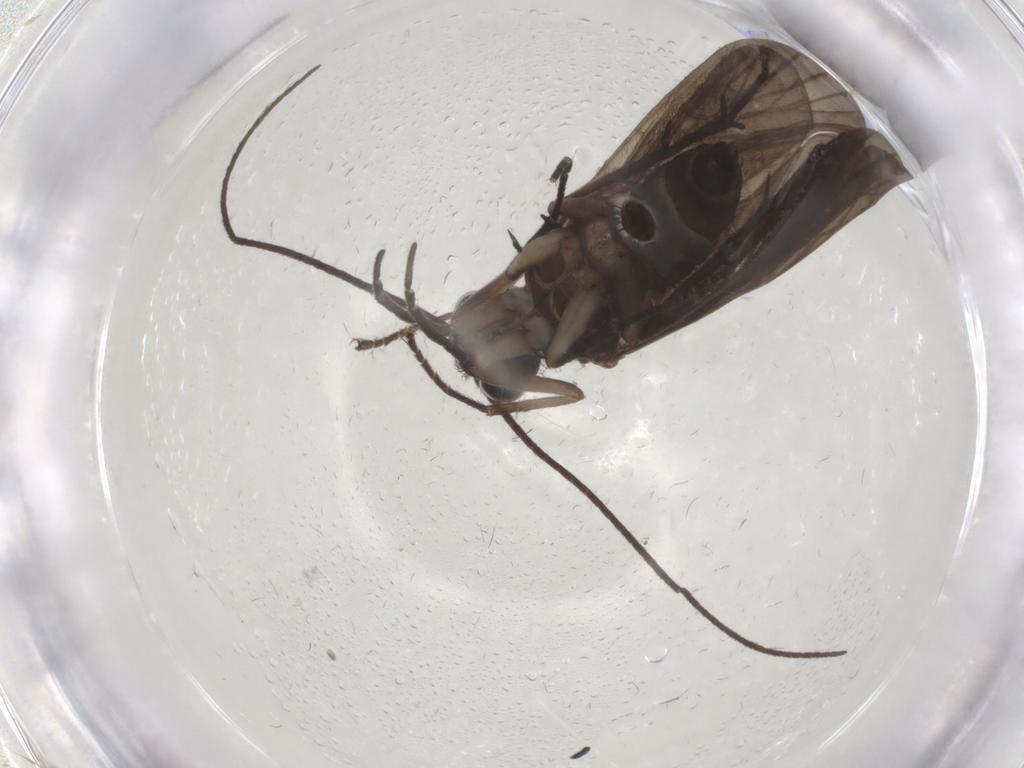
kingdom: Animalia
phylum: Arthropoda
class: Insecta
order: Trichoptera
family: Philopotamidae
